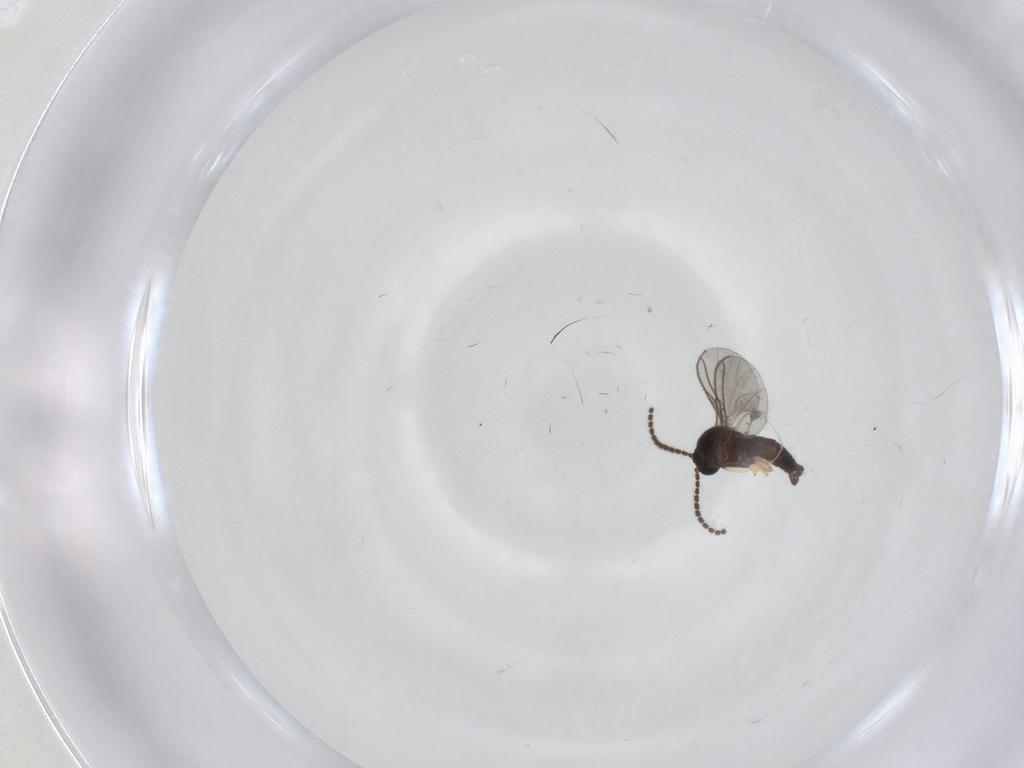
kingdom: Animalia
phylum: Arthropoda
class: Insecta
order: Diptera
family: Sciaridae
